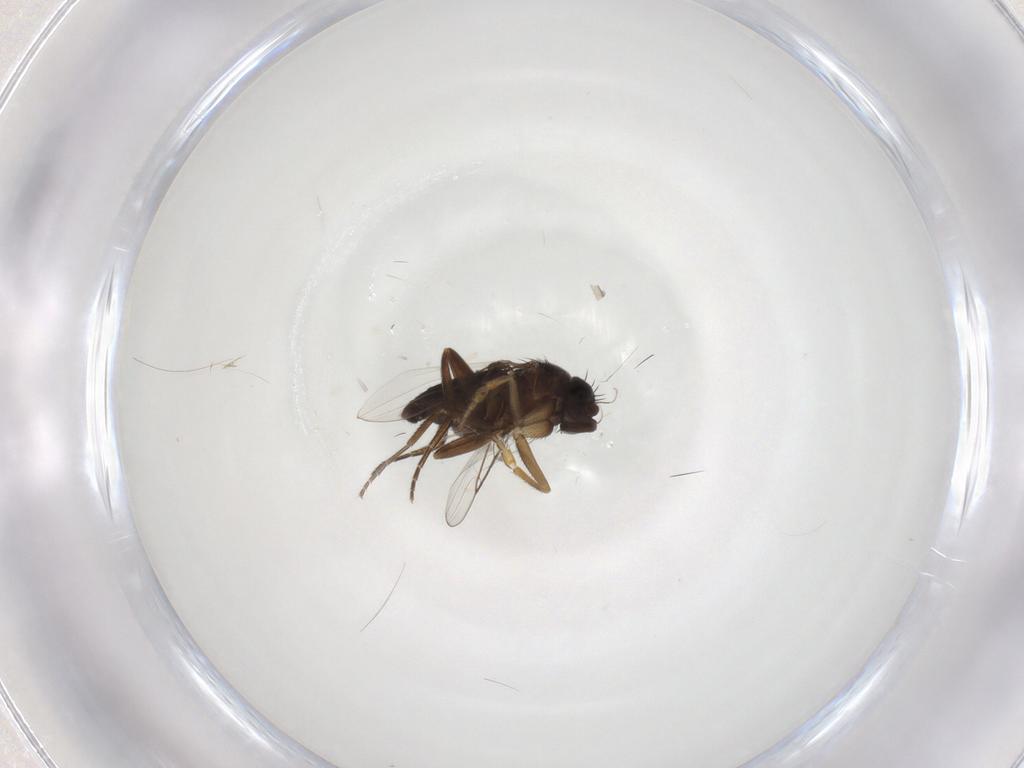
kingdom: Animalia
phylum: Arthropoda
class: Insecta
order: Diptera
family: Phoridae
